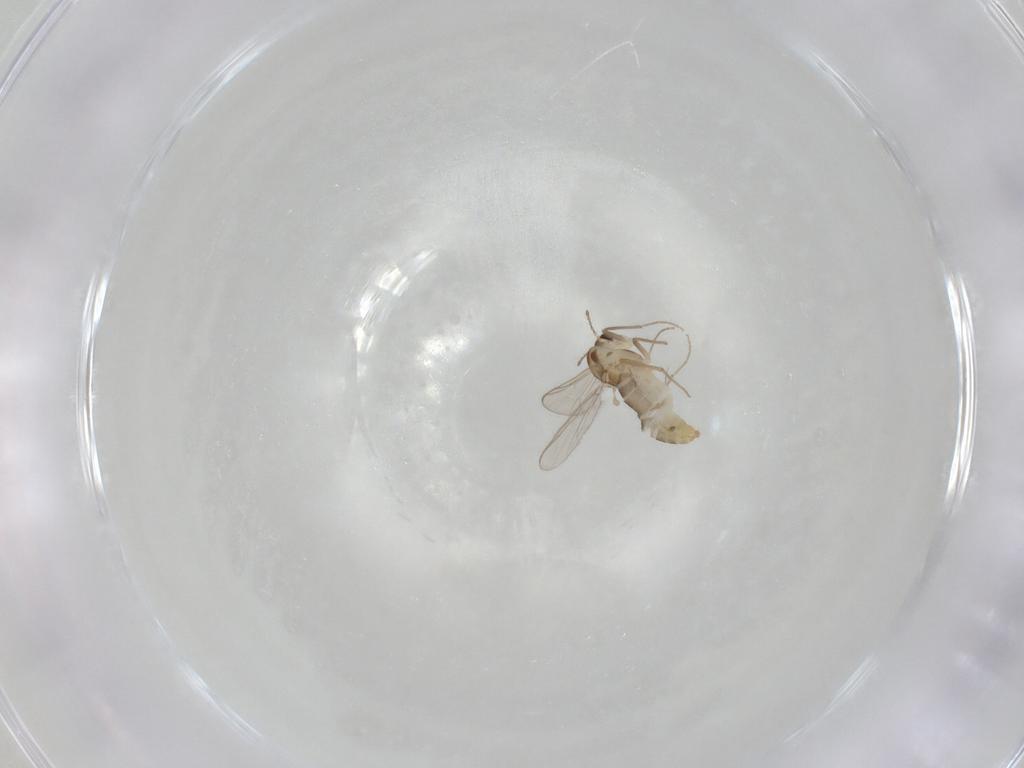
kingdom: Animalia
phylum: Arthropoda
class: Insecta
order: Diptera
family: Chironomidae
